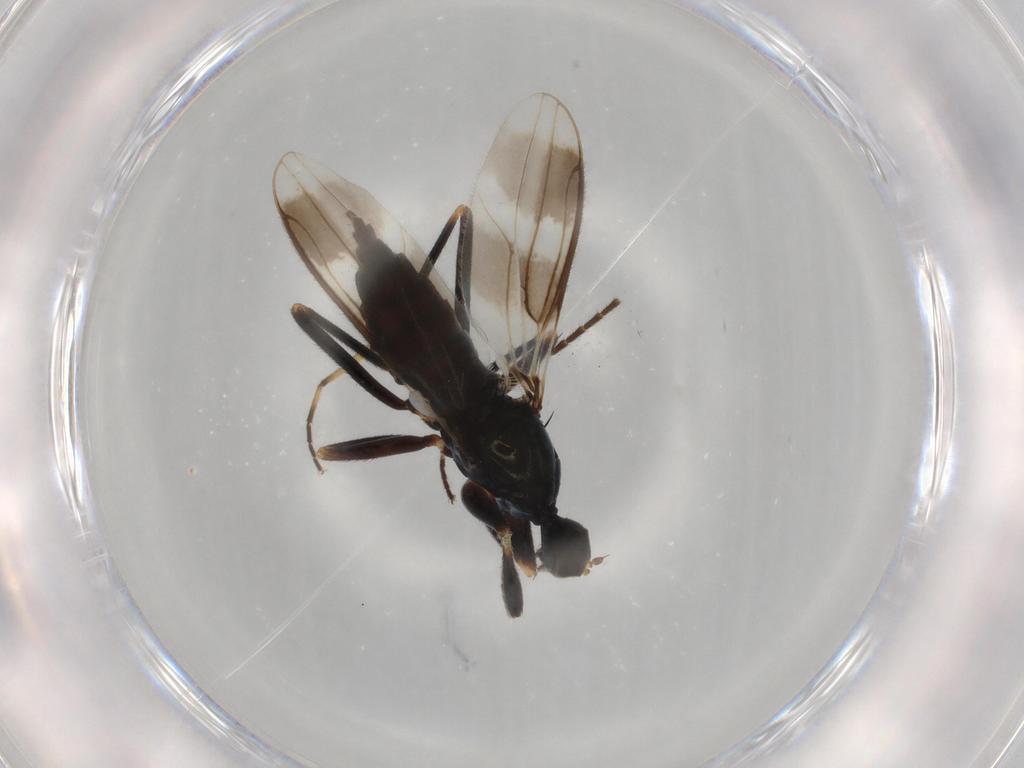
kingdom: Animalia
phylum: Arthropoda
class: Insecta
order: Diptera
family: Hybotidae
